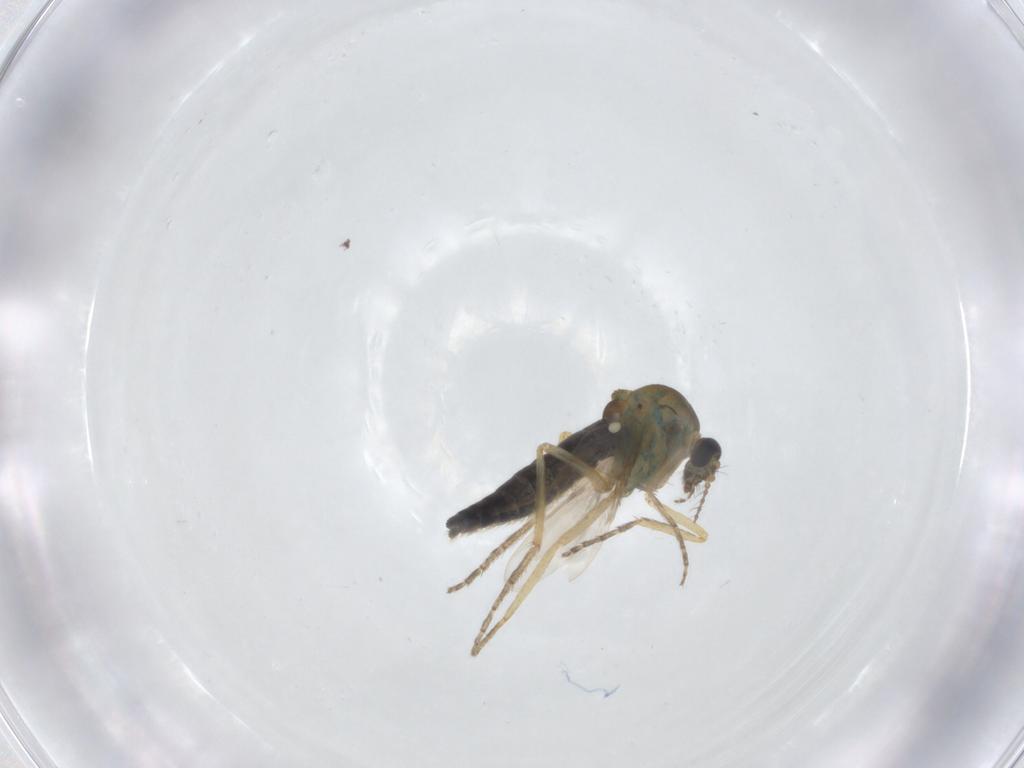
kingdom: Animalia
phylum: Arthropoda
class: Insecta
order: Diptera
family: Ceratopogonidae
